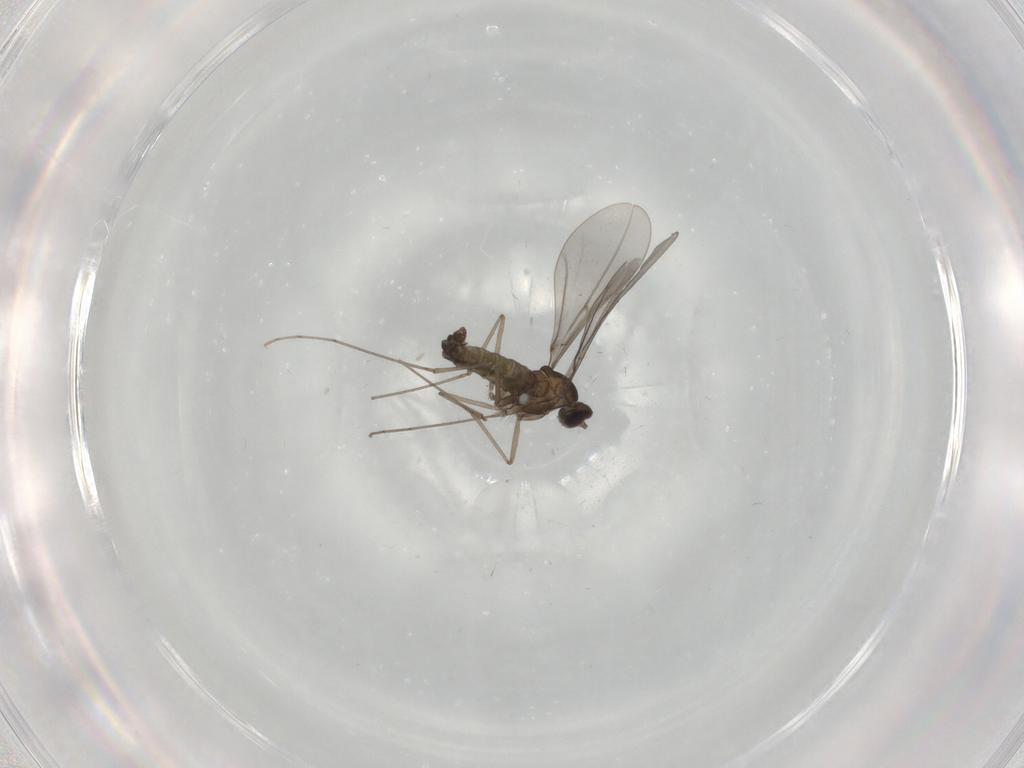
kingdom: Animalia
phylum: Arthropoda
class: Insecta
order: Diptera
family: Cecidomyiidae
